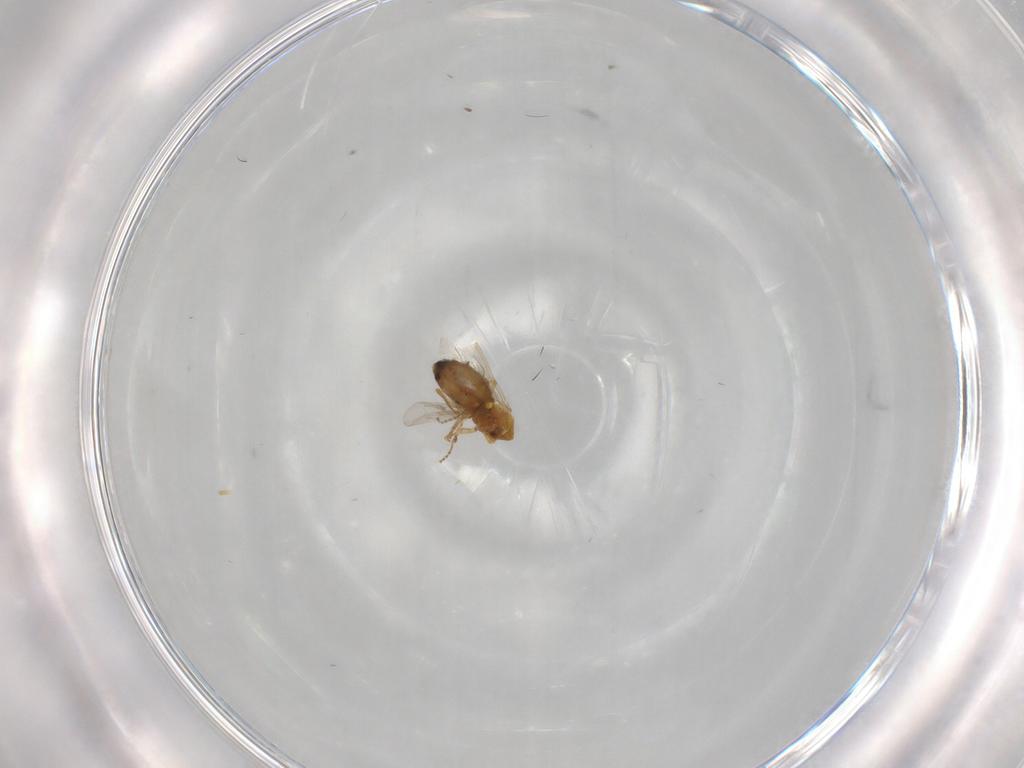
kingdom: Animalia
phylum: Arthropoda
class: Insecta
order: Diptera
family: Ceratopogonidae
